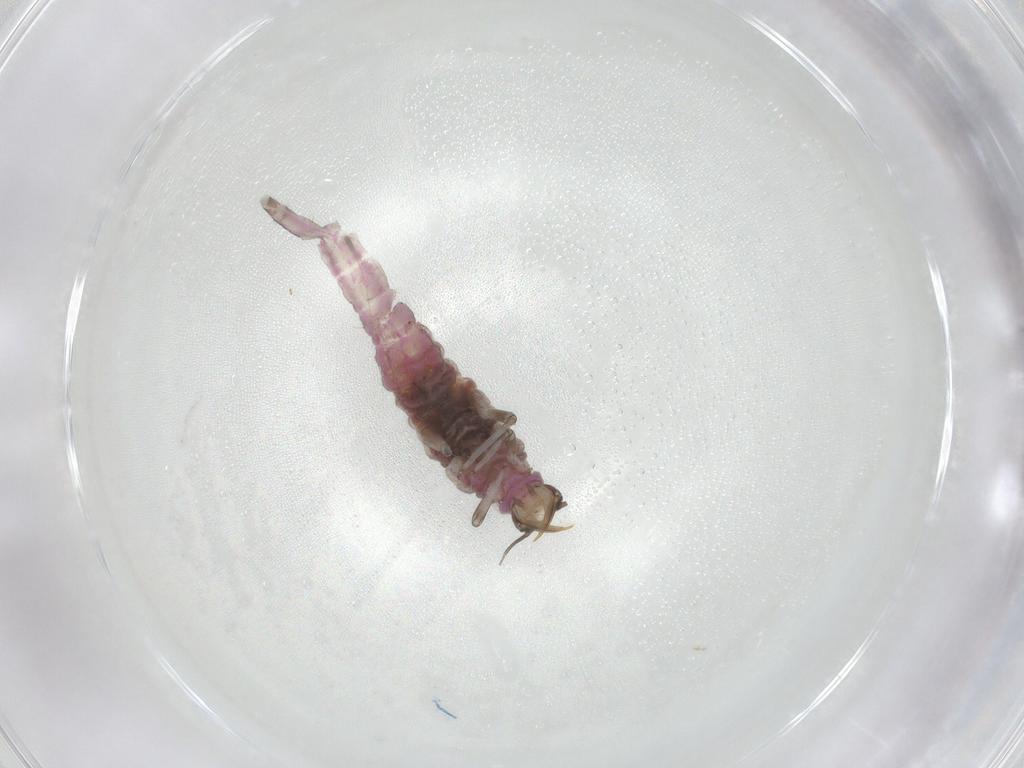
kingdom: Animalia
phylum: Arthropoda
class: Insecta
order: Hymenoptera
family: Figitidae
